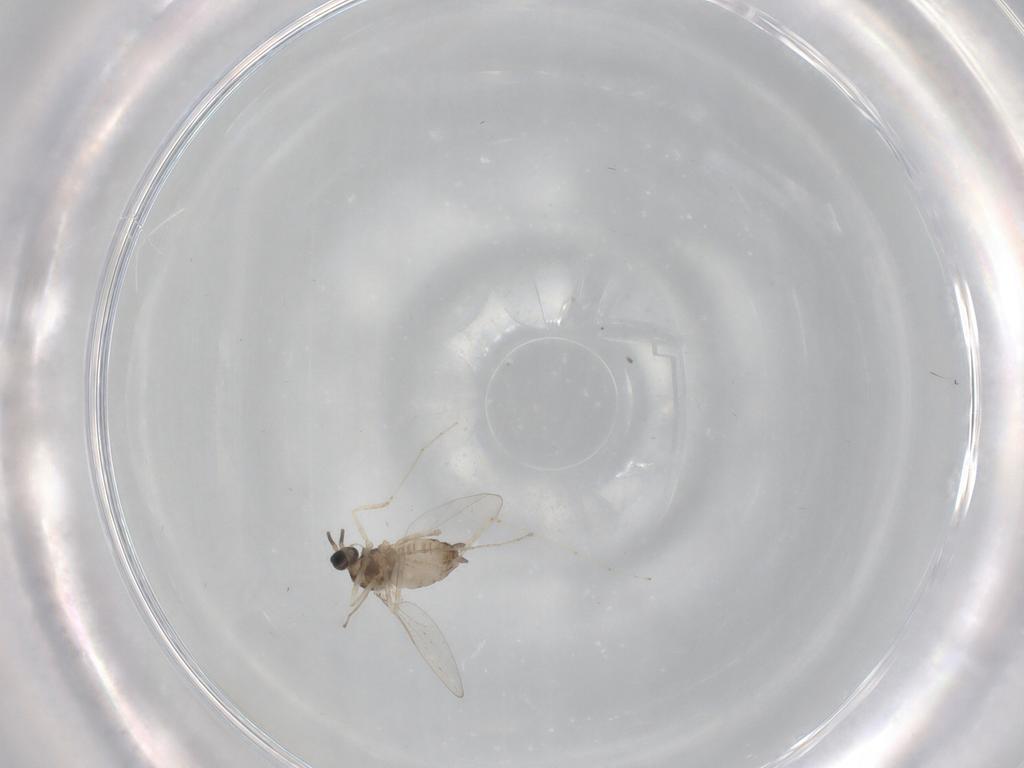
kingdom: Animalia
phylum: Arthropoda
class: Insecta
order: Diptera
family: Cecidomyiidae
